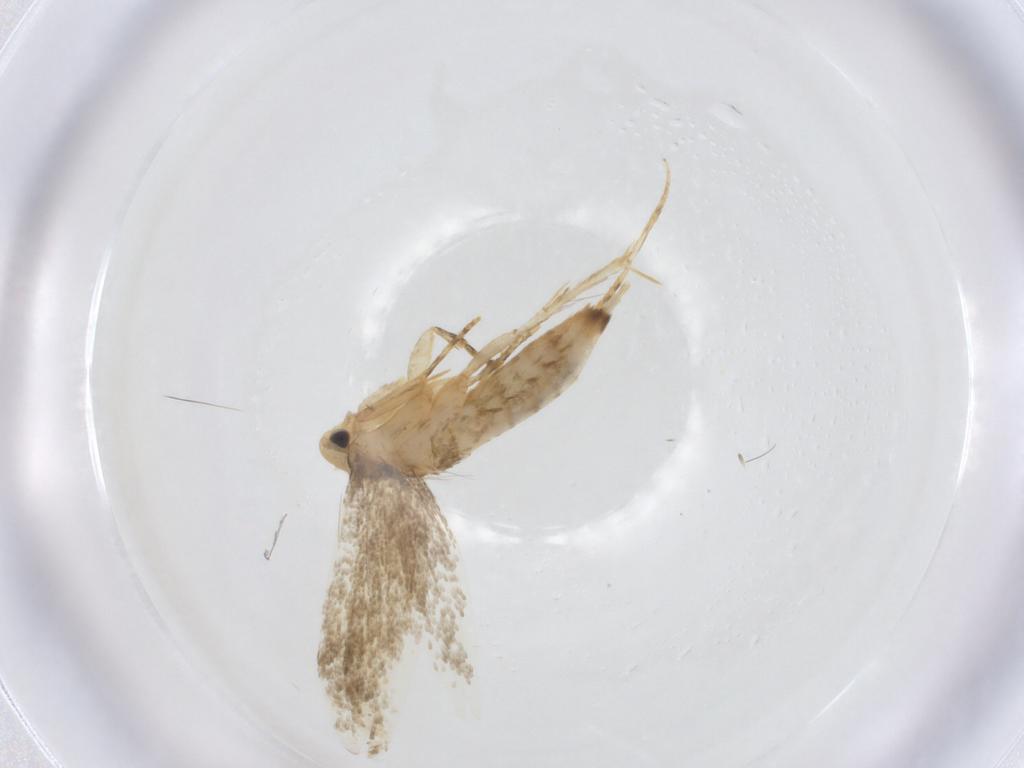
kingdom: Animalia
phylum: Arthropoda
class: Insecta
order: Lepidoptera
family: Tineidae
